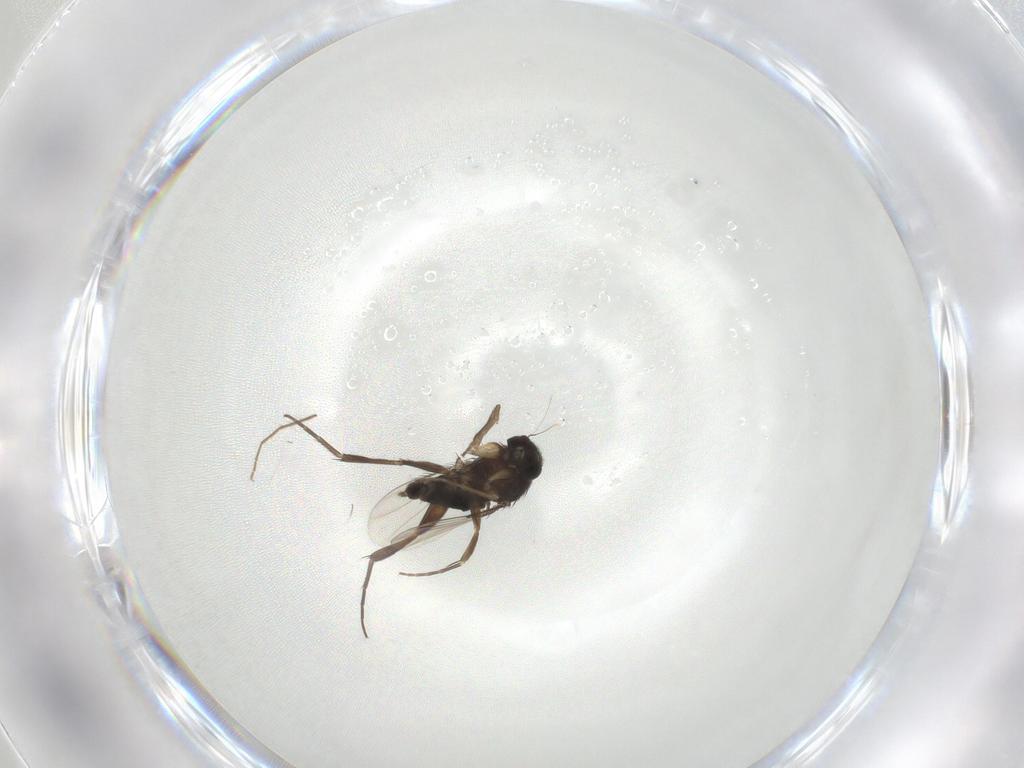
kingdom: Animalia
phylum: Arthropoda
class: Insecta
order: Diptera
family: Phoridae
